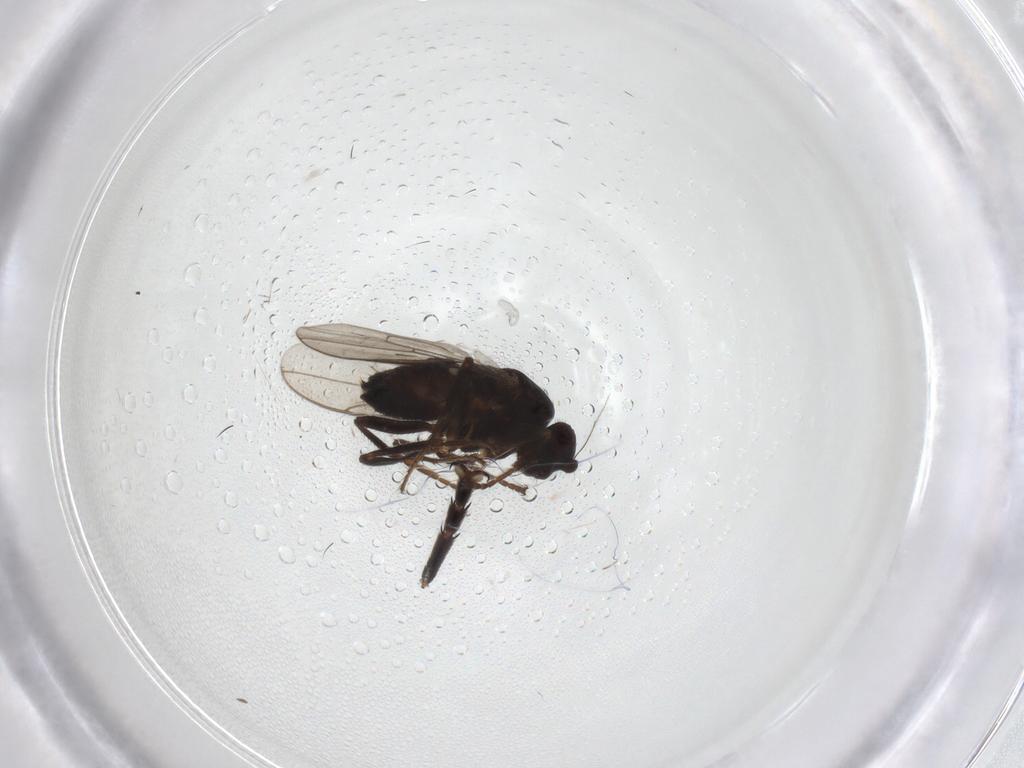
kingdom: Animalia
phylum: Arthropoda
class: Insecta
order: Diptera
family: Sphaeroceridae
